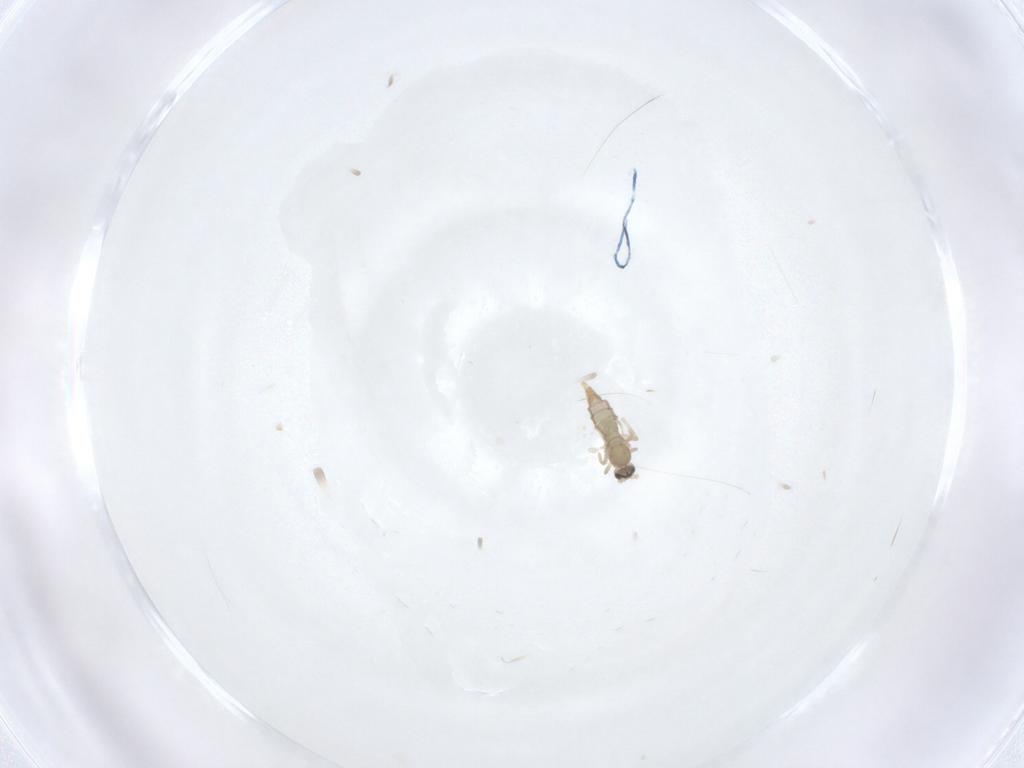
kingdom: Animalia
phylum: Arthropoda
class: Insecta
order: Diptera
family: Cecidomyiidae
